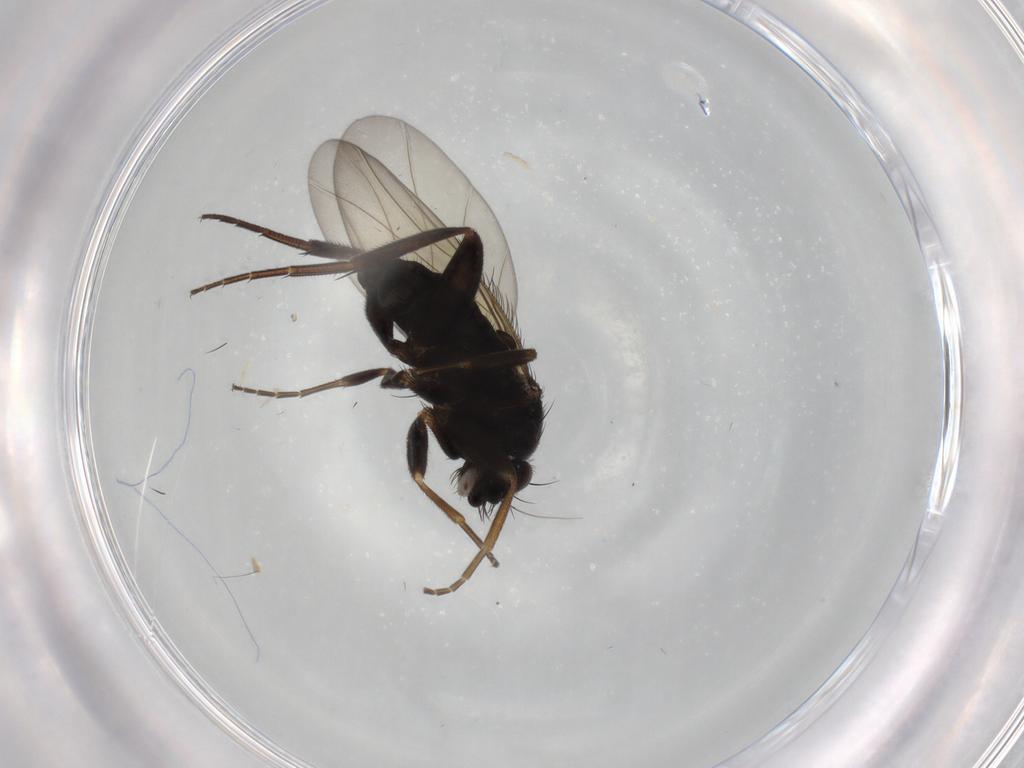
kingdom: Animalia
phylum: Arthropoda
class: Insecta
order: Diptera
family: Phoridae
